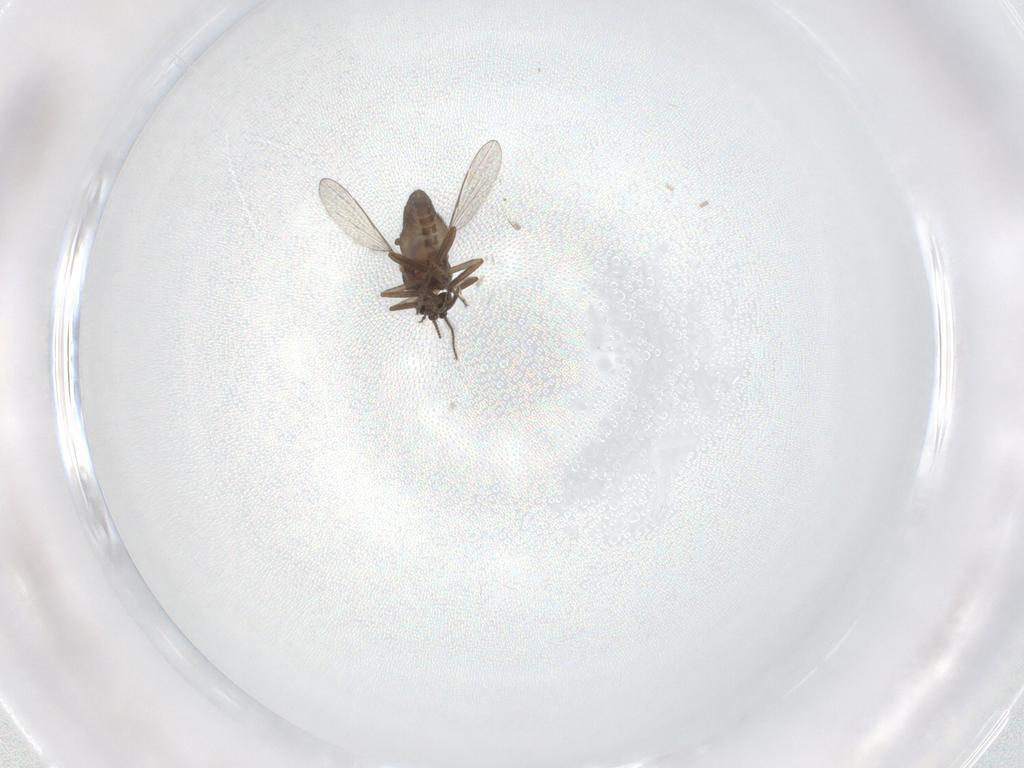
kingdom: Animalia
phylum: Arthropoda
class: Insecta
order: Diptera
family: Ceratopogonidae
